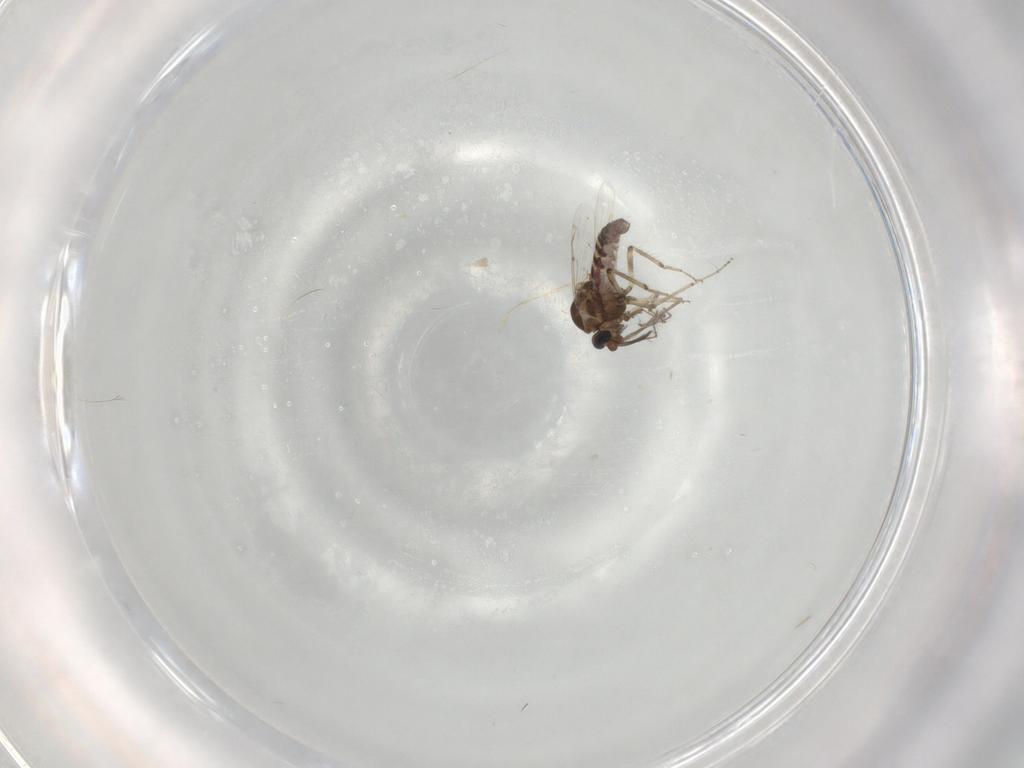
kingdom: Animalia
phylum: Arthropoda
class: Insecta
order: Diptera
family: Ceratopogonidae
